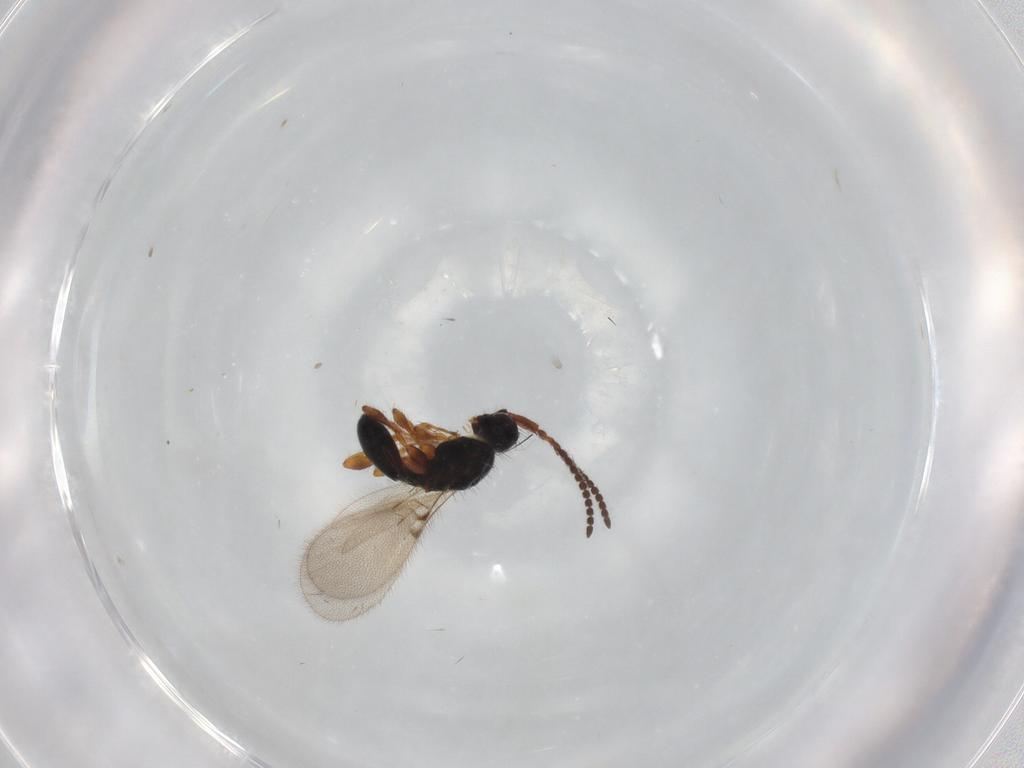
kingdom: Animalia
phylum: Arthropoda
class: Insecta
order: Hymenoptera
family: Diapriidae
